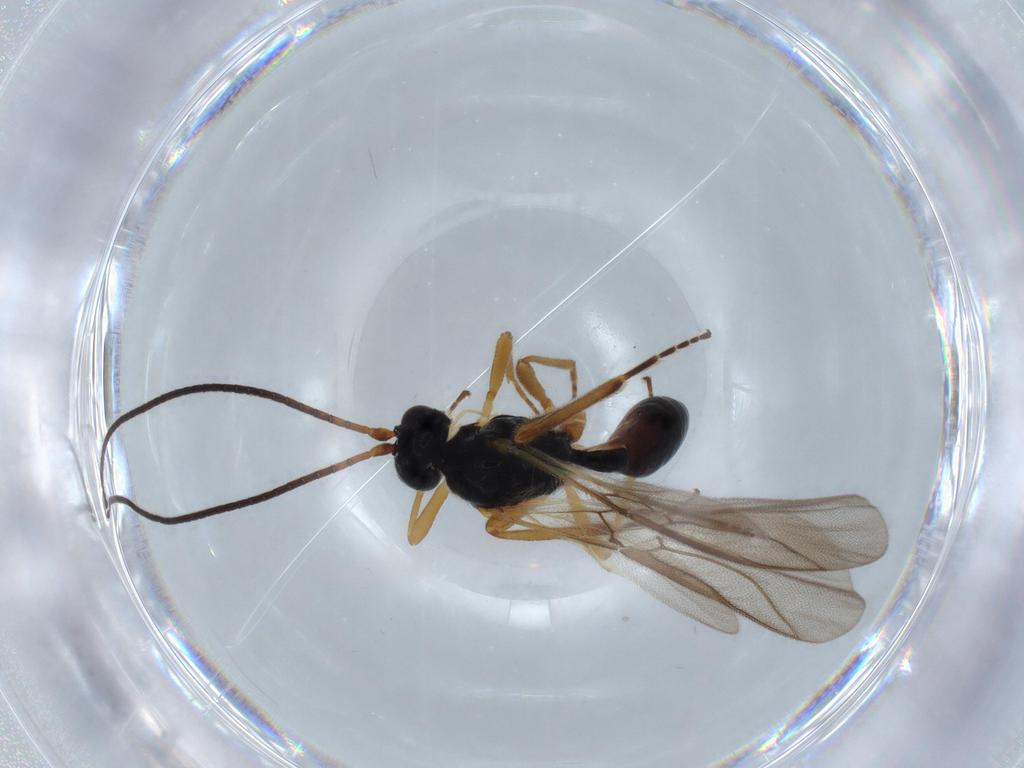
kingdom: Animalia
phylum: Arthropoda
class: Insecta
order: Hymenoptera
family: Braconidae
